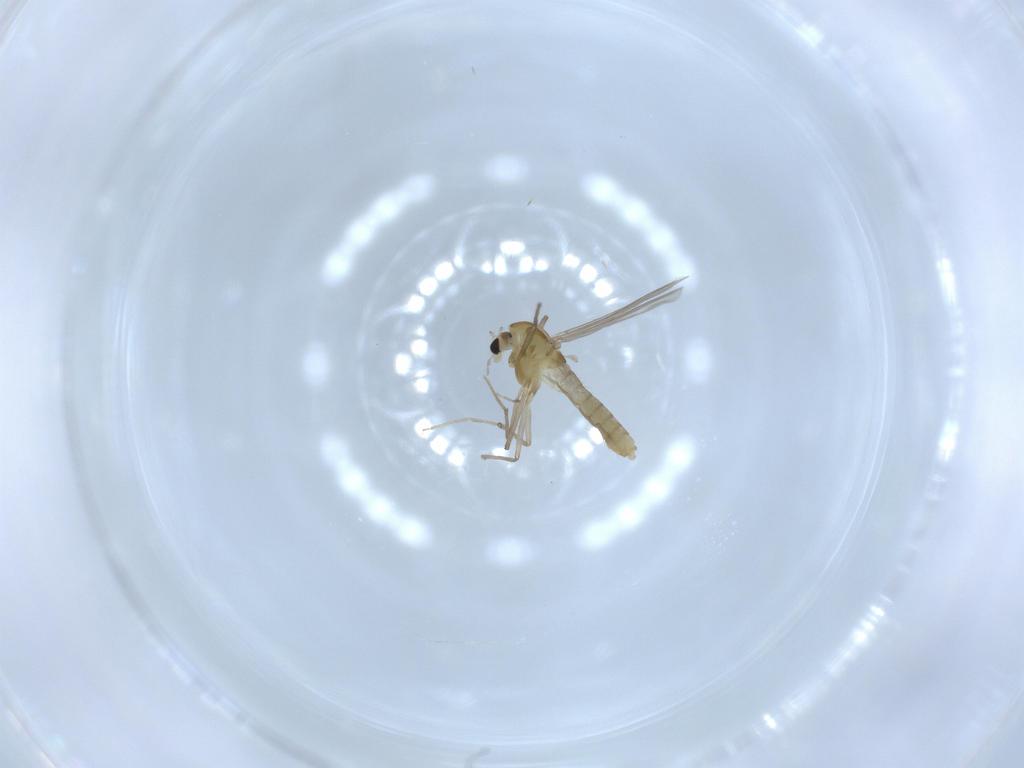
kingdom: Animalia
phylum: Arthropoda
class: Insecta
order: Diptera
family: Chironomidae
